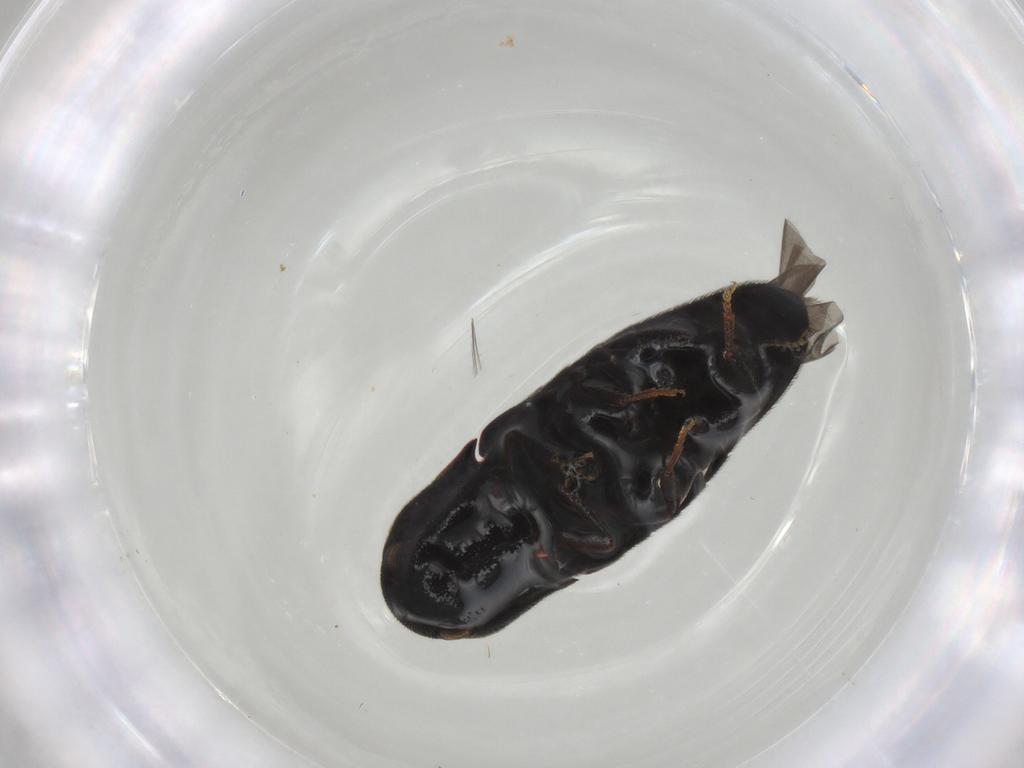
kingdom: Animalia
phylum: Arthropoda
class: Insecta
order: Coleoptera
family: Eucnemidae
